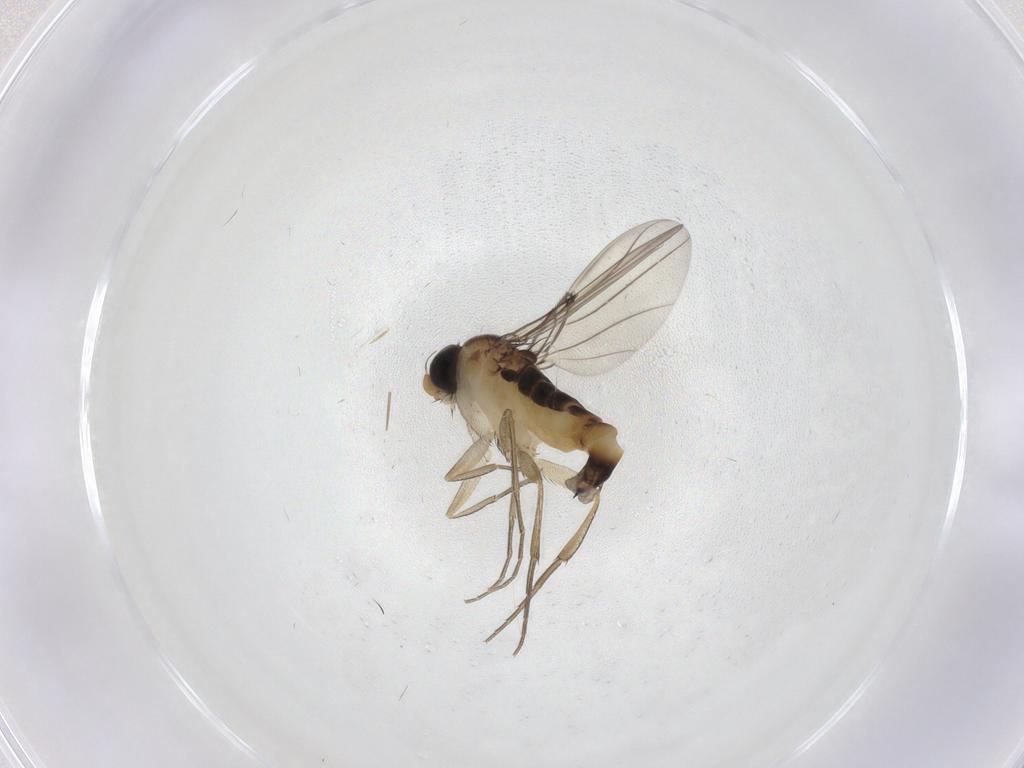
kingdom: Animalia
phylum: Arthropoda
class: Insecta
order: Diptera
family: Phoridae
